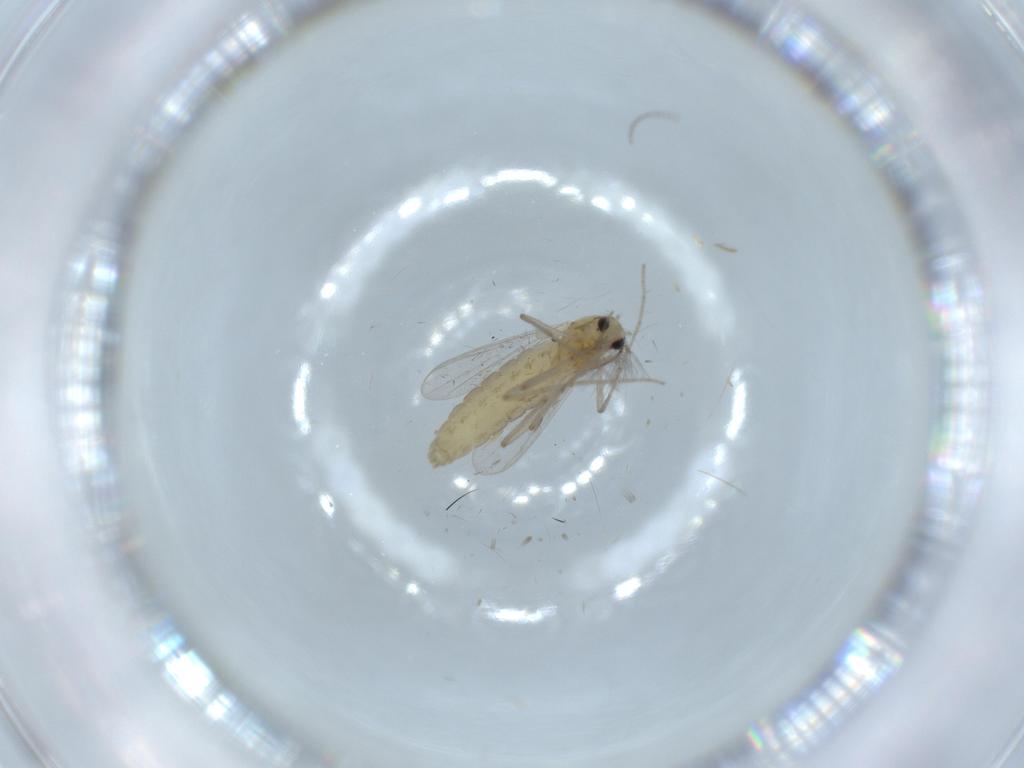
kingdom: Animalia
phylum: Arthropoda
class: Insecta
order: Diptera
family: Chironomidae
